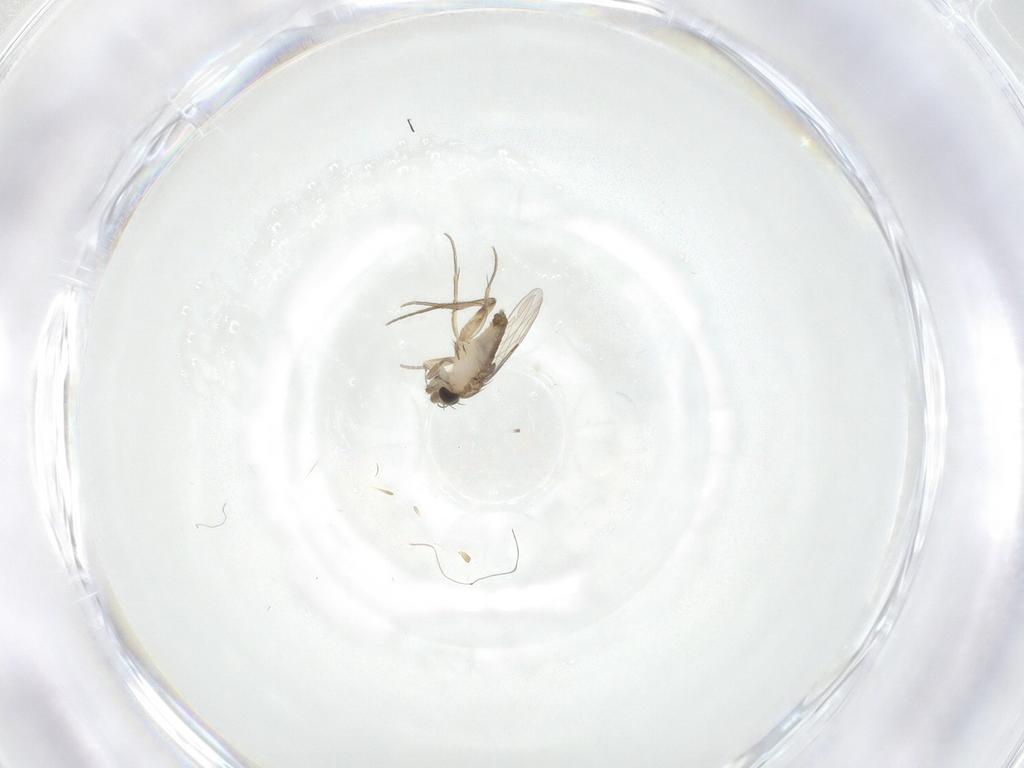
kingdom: Animalia
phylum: Arthropoda
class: Insecta
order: Diptera
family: Phoridae
